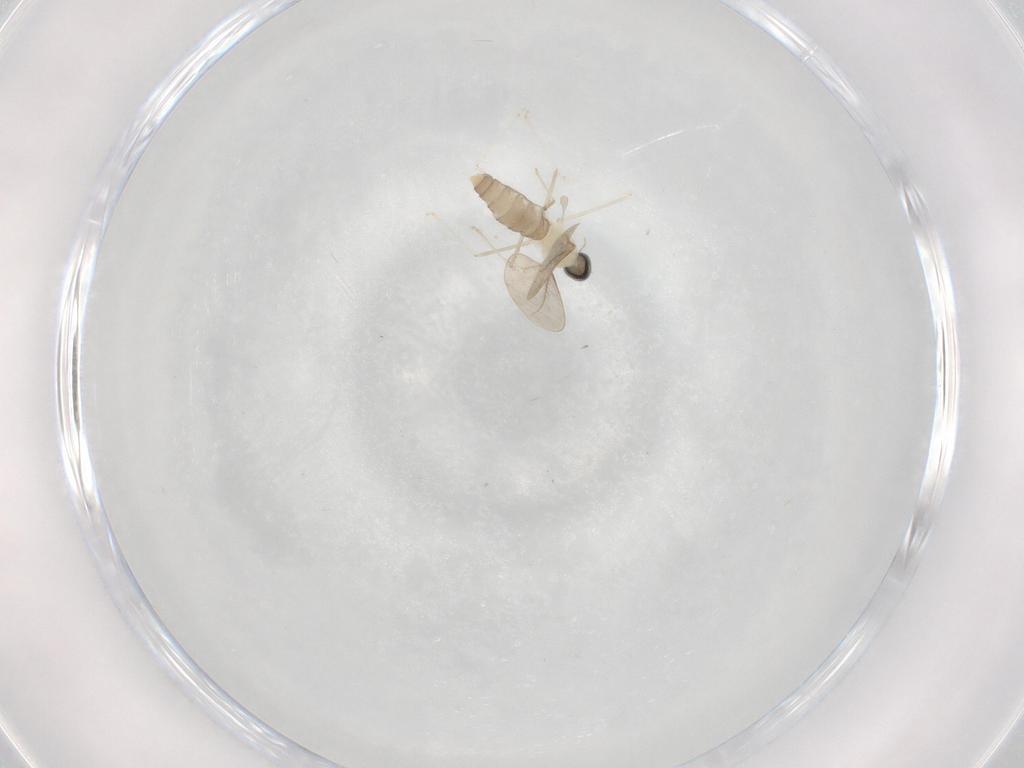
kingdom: Animalia
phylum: Arthropoda
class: Insecta
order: Diptera
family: Cecidomyiidae
